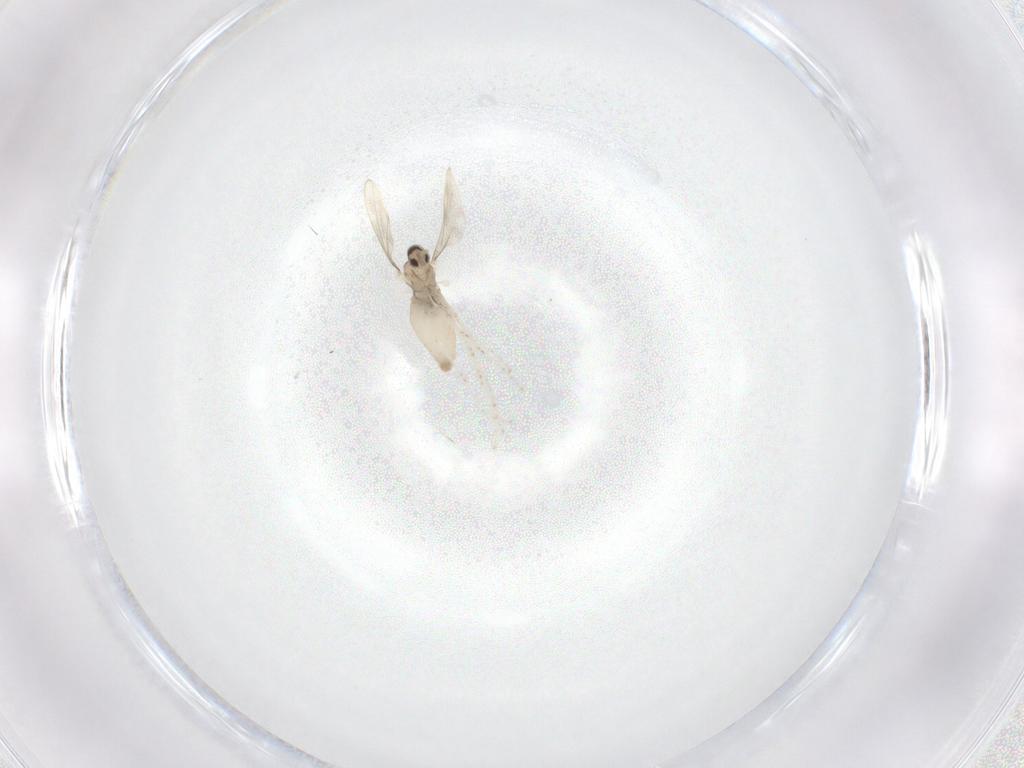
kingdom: Animalia
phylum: Arthropoda
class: Insecta
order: Diptera
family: Cecidomyiidae
